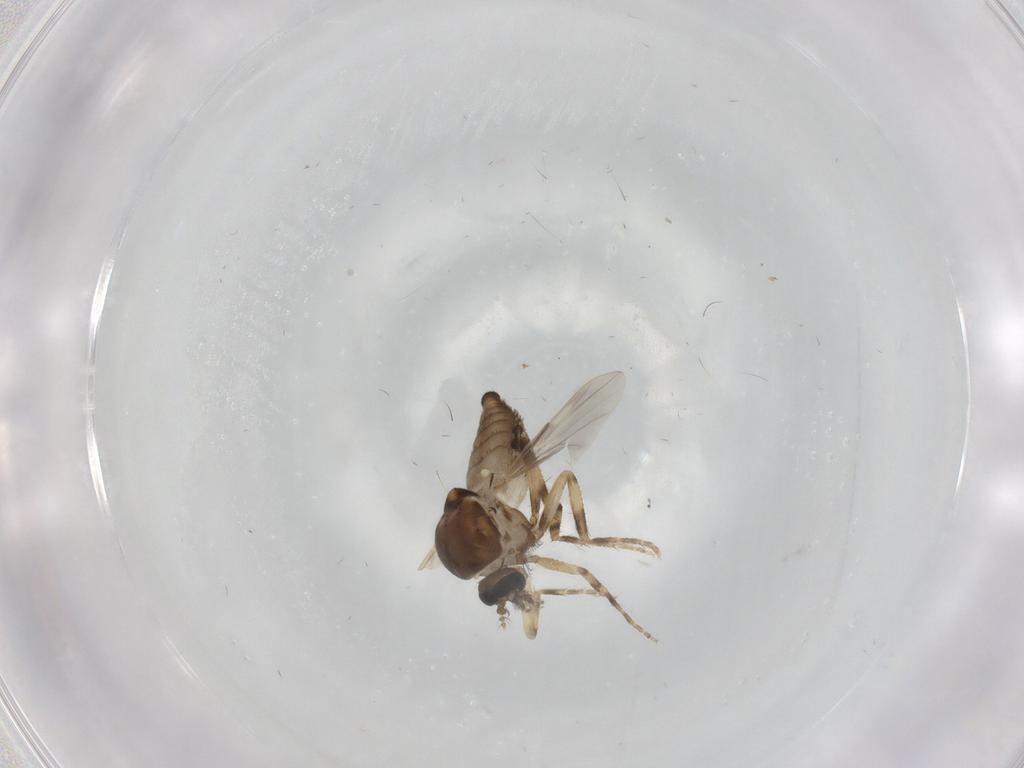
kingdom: Animalia
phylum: Arthropoda
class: Insecta
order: Diptera
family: Ceratopogonidae
